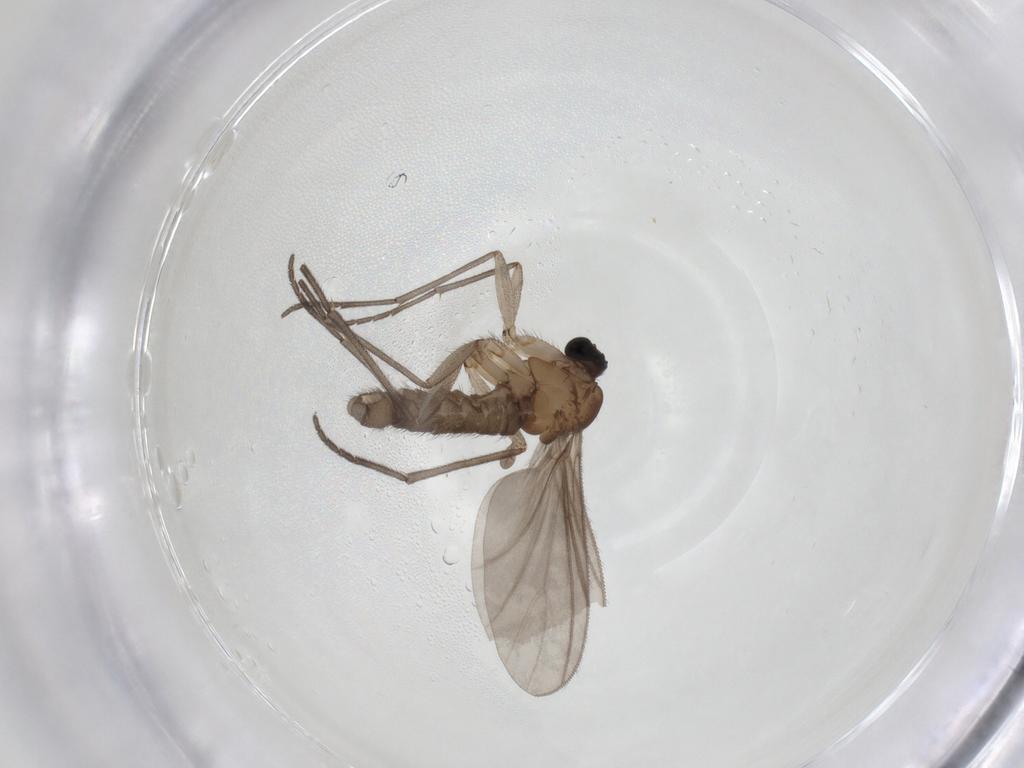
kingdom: Animalia
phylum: Arthropoda
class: Insecta
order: Diptera
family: Sciaridae
